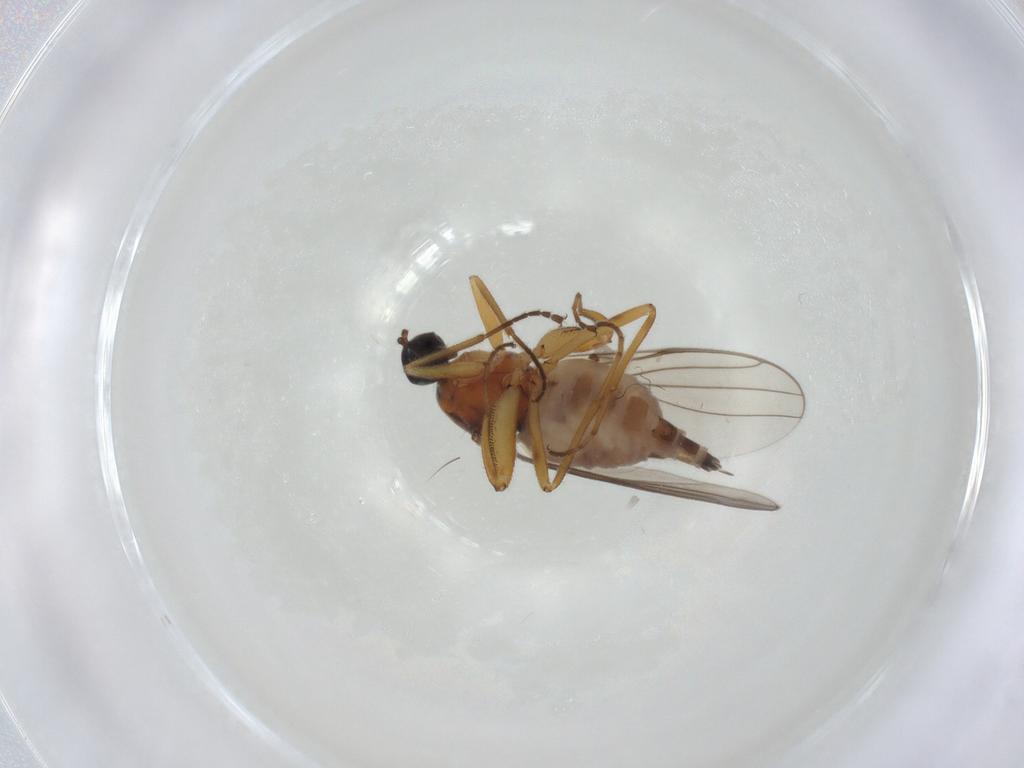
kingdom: Animalia
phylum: Arthropoda
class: Insecta
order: Diptera
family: Hybotidae
